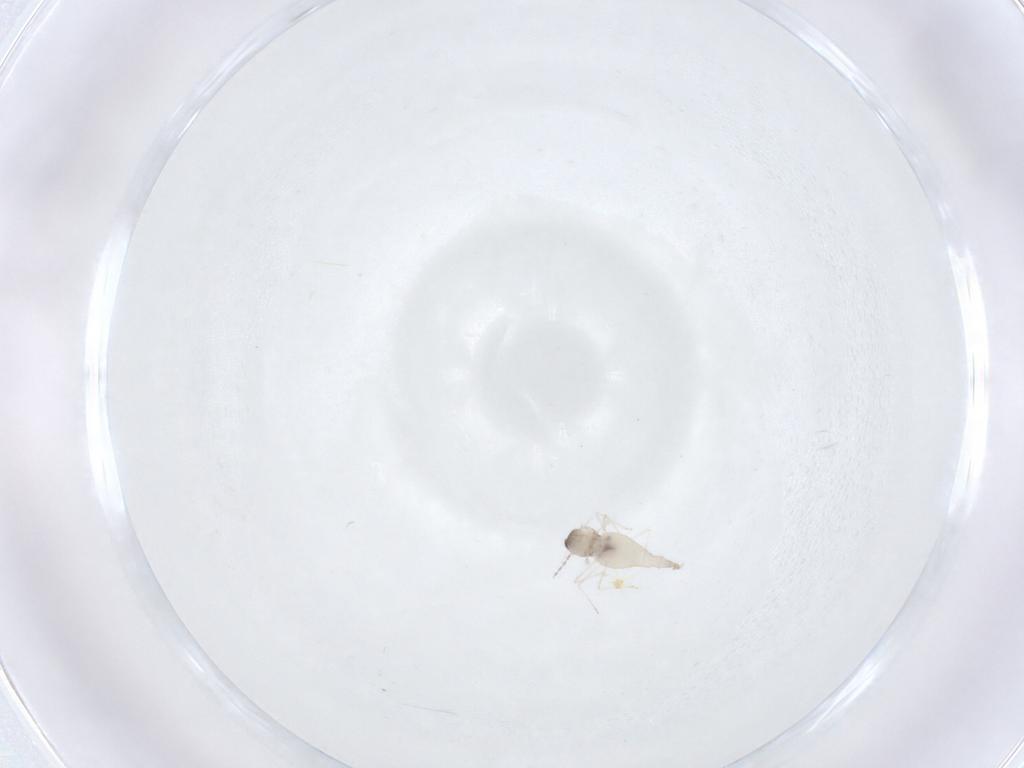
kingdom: Animalia
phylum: Arthropoda
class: Insecta
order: Diptera
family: Cecidomyiidae
